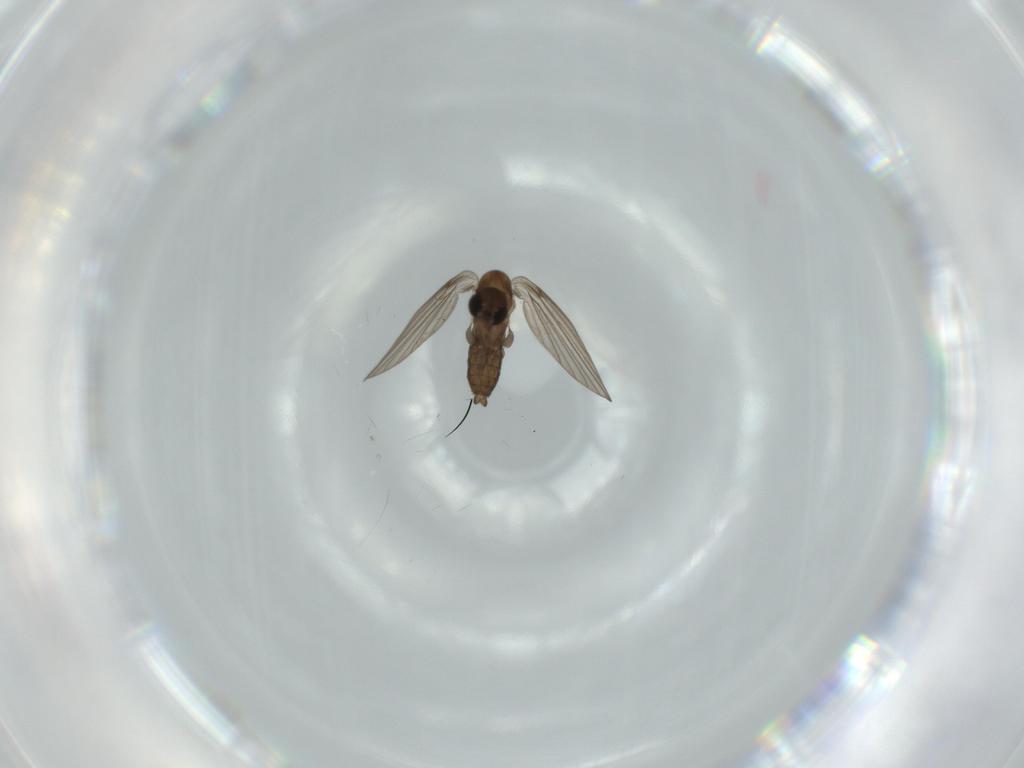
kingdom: Animalia
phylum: Arthropoda
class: Insecta
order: Diptera
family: Psychodidae
